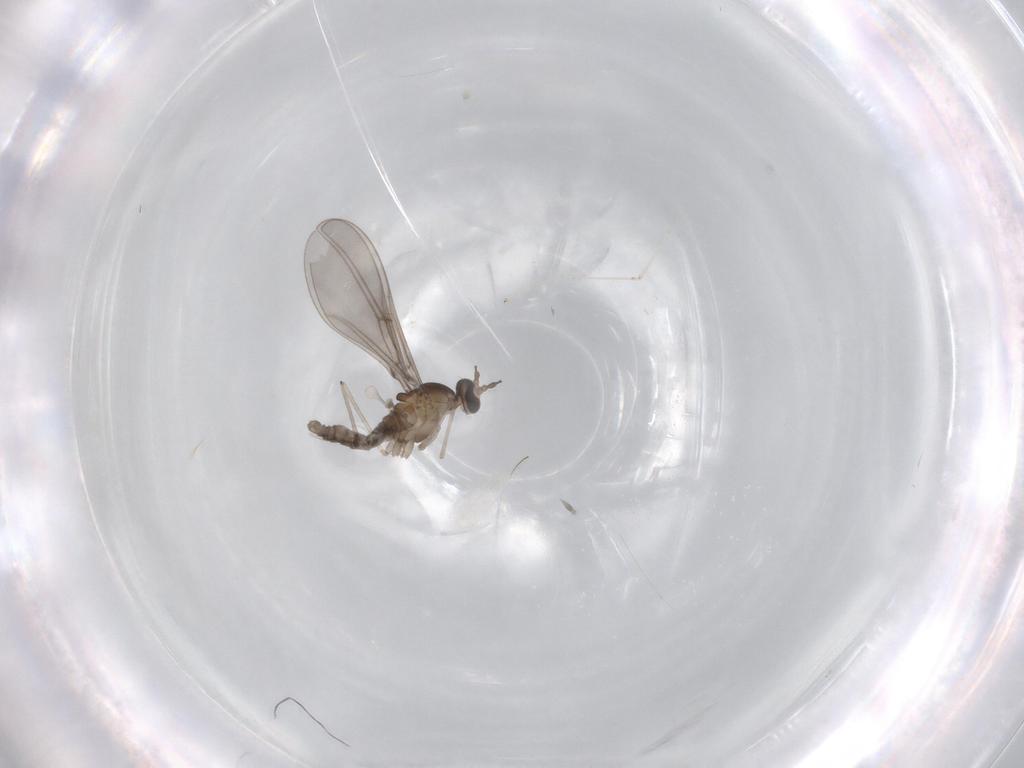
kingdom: Animalia
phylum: Arthropoda
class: Insecta
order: Diptera
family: Cecidomyiidae
